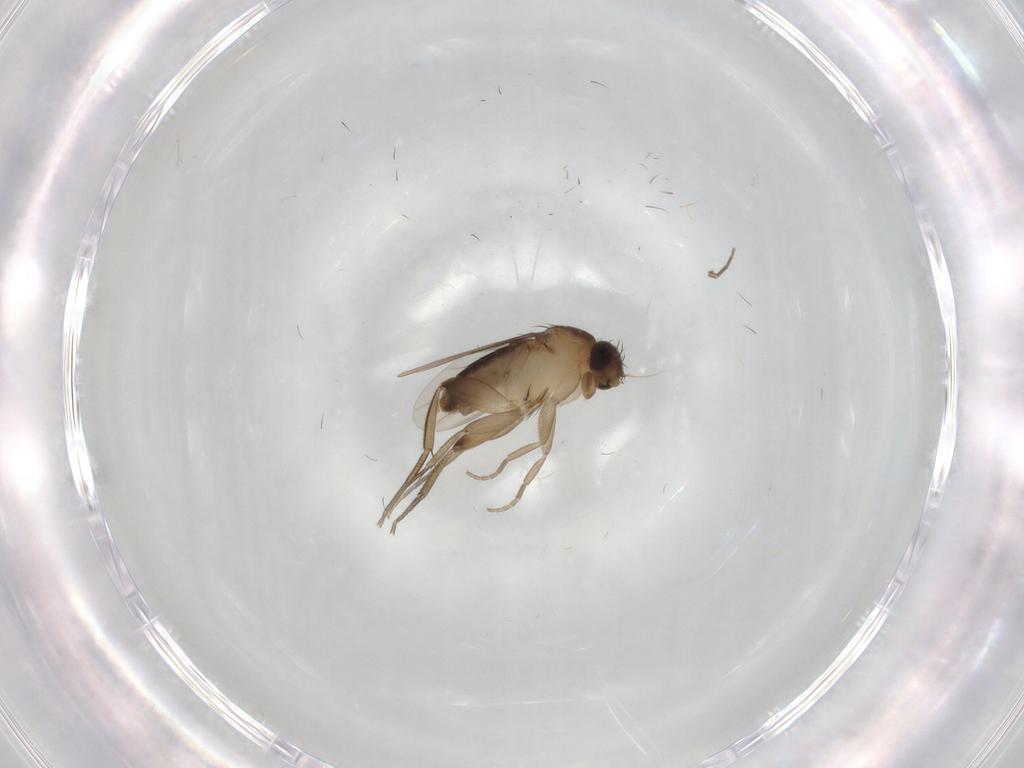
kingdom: Animalia
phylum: Arthropoda
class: Insecta
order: Diptera
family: Phoridae
